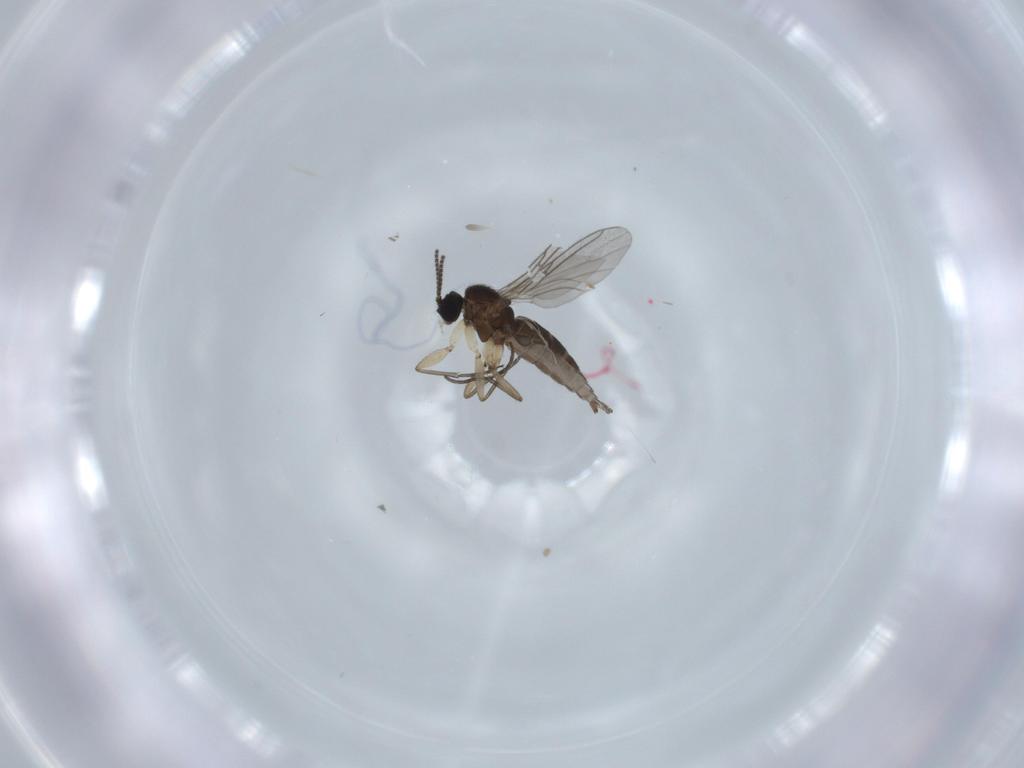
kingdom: Animalia
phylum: Arthropoda
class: Insecta
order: Diptera
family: Sciaridae
